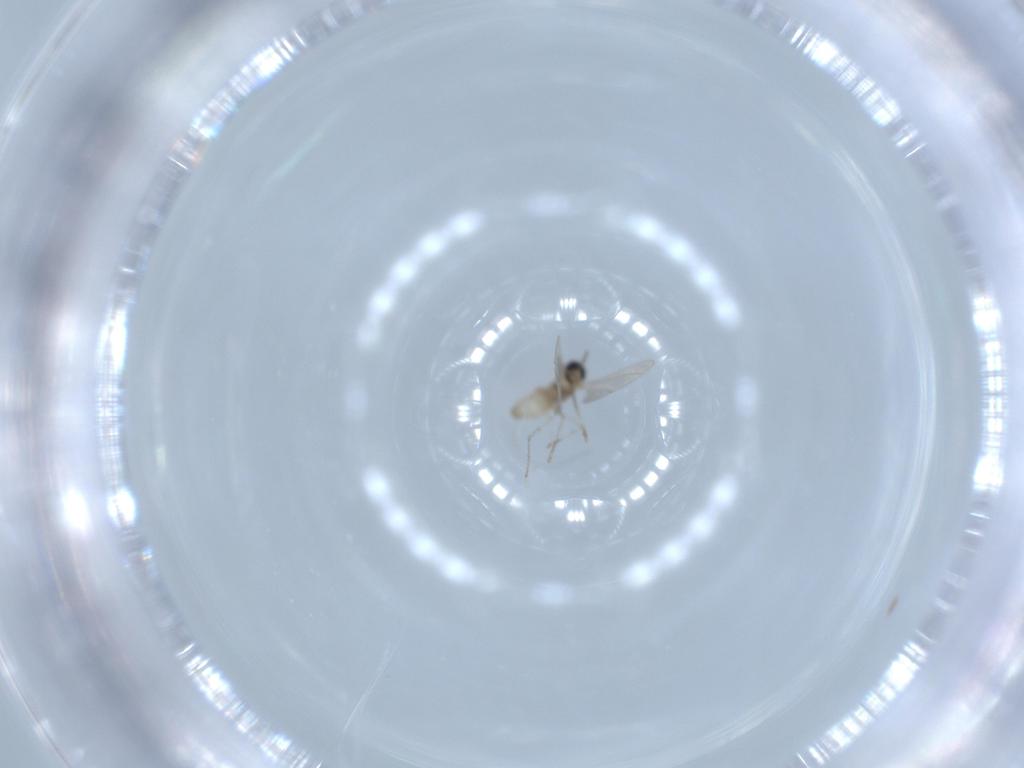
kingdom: Animalia
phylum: Arthropoda
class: Insecta
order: Diptera
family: Cecidomyiidae
